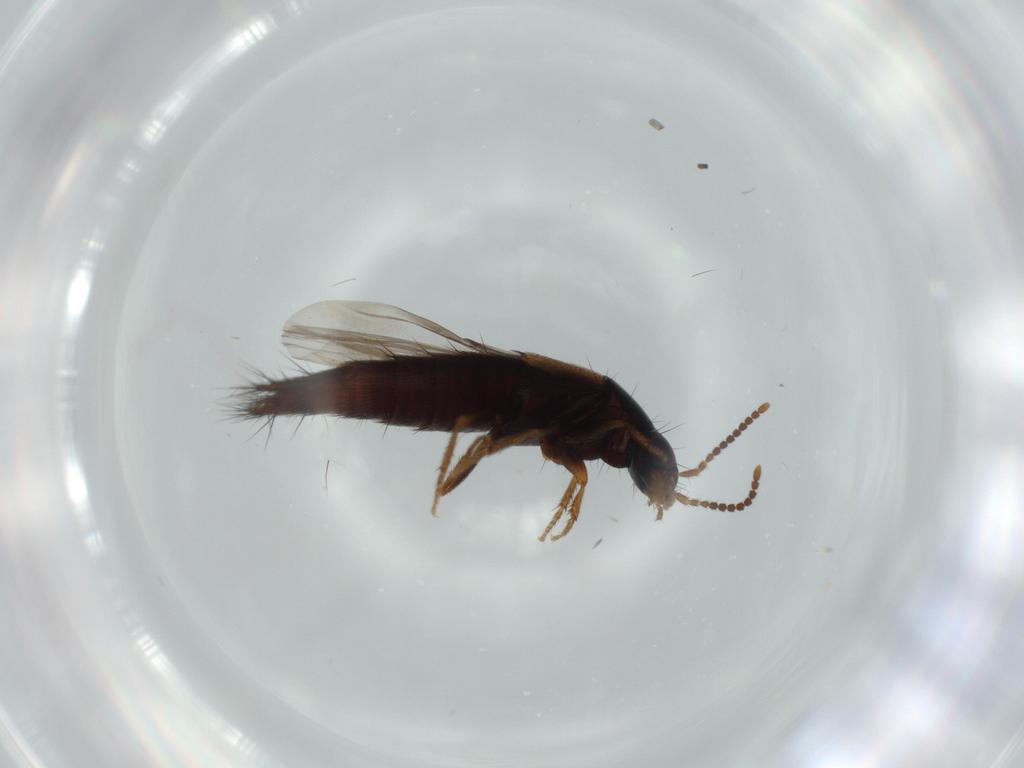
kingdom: Animalia
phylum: Arthropoda
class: Insecta
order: Coleoptera
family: Staphylinidae
